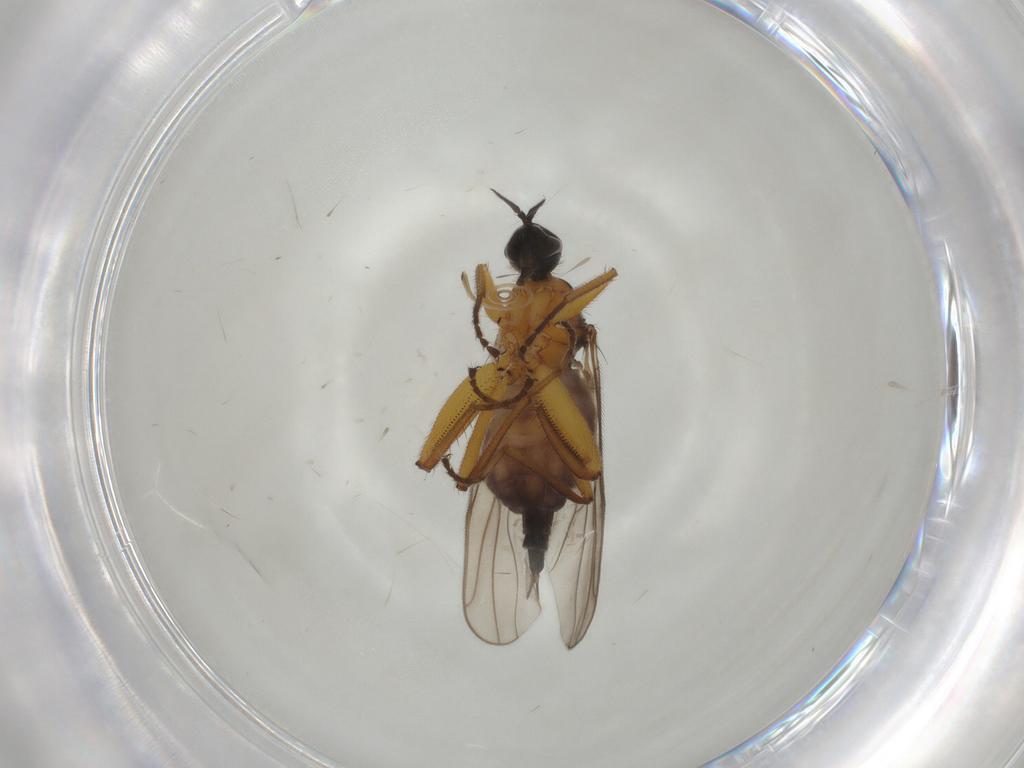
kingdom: Animalia
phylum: Arthropoda
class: Insecta
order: Diptera
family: Hybotidae
